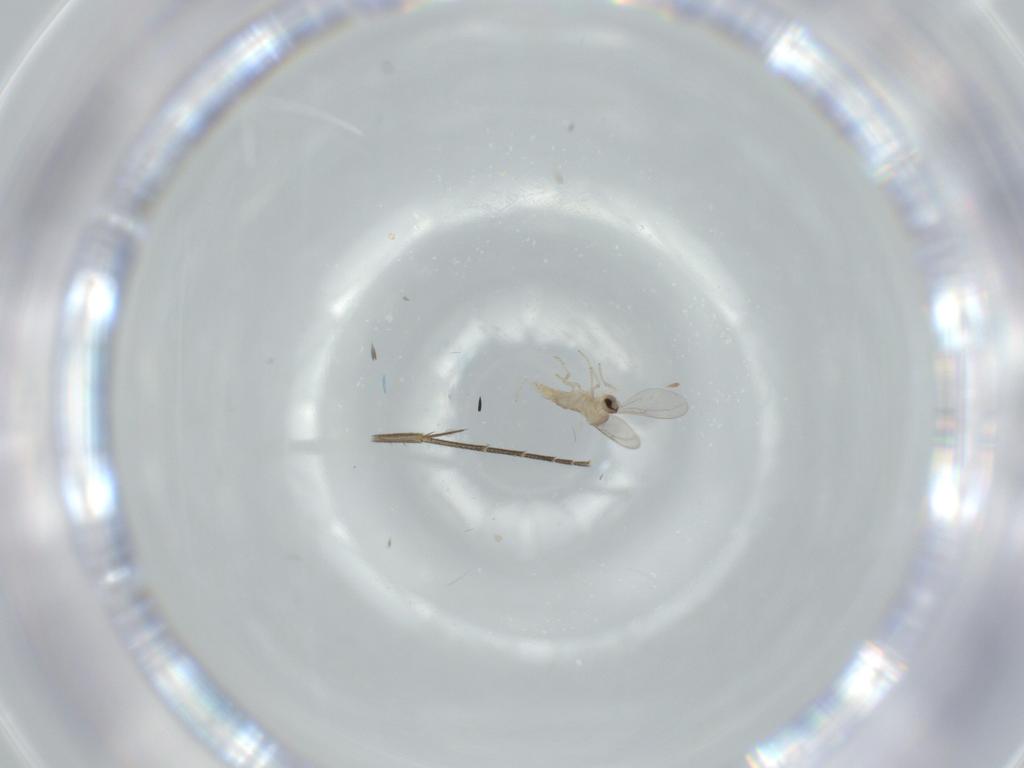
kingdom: Animalia
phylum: Arthropoda
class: Insecta
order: Diptera
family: Mycetophilidae
